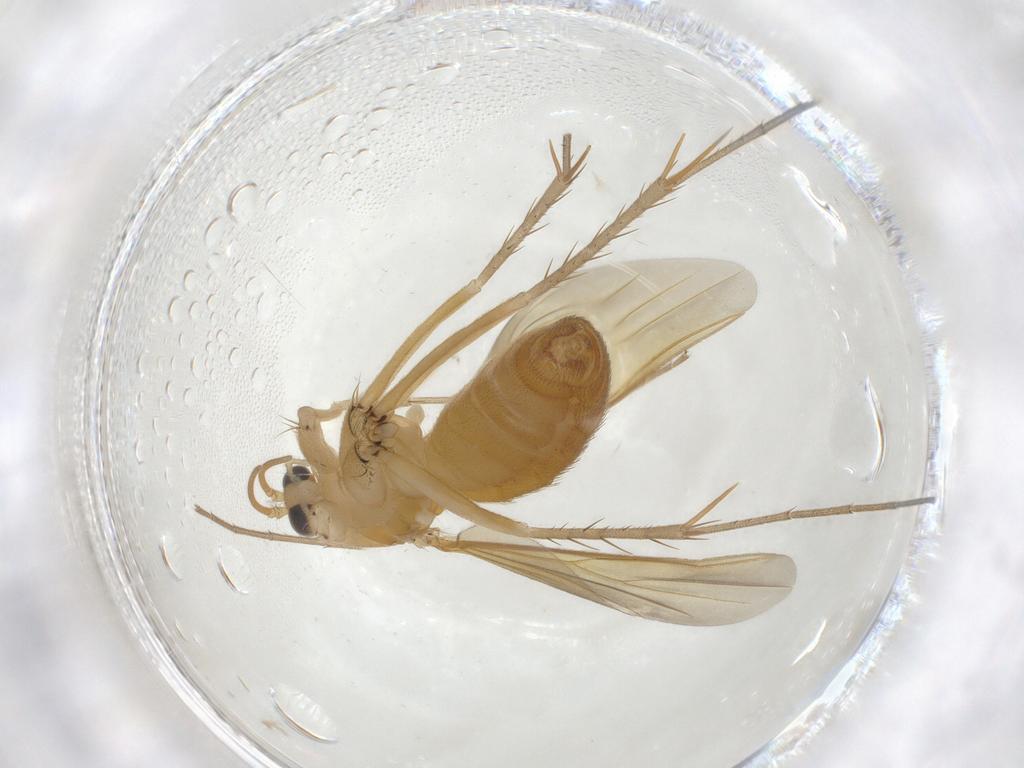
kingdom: Animalia
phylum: Arthropoda
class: Insecta
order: Diptera
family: Mycetophilidae
